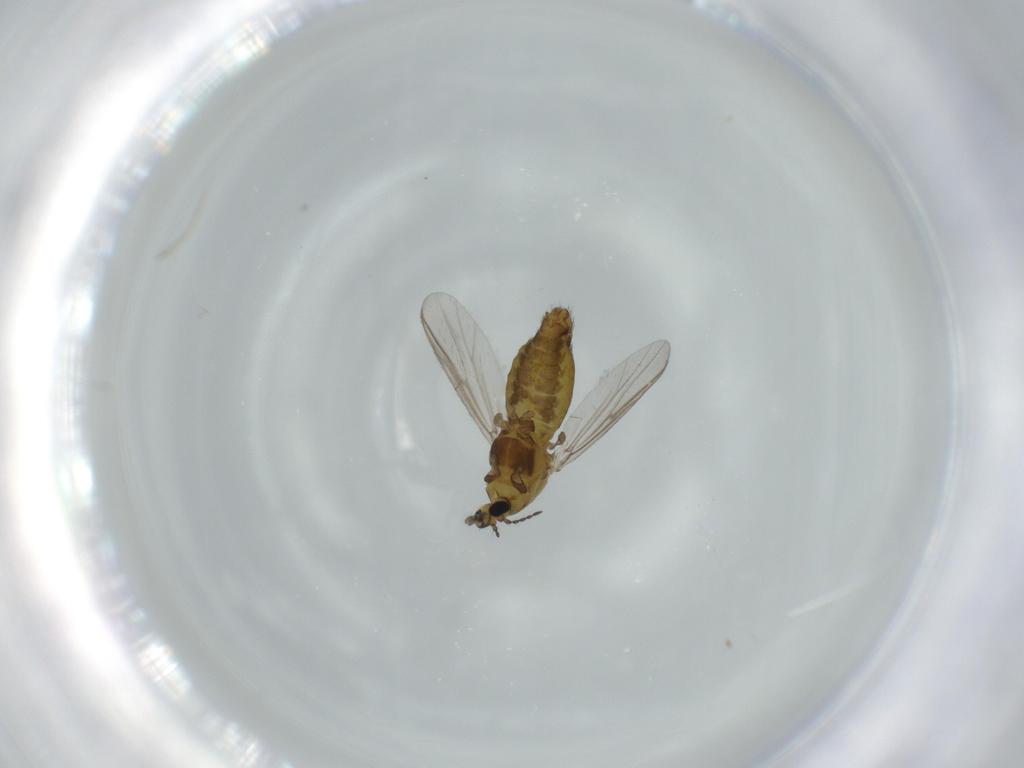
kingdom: Animalia
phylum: Arthropoda
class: Insecta
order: Diptera
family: Chironomidae
